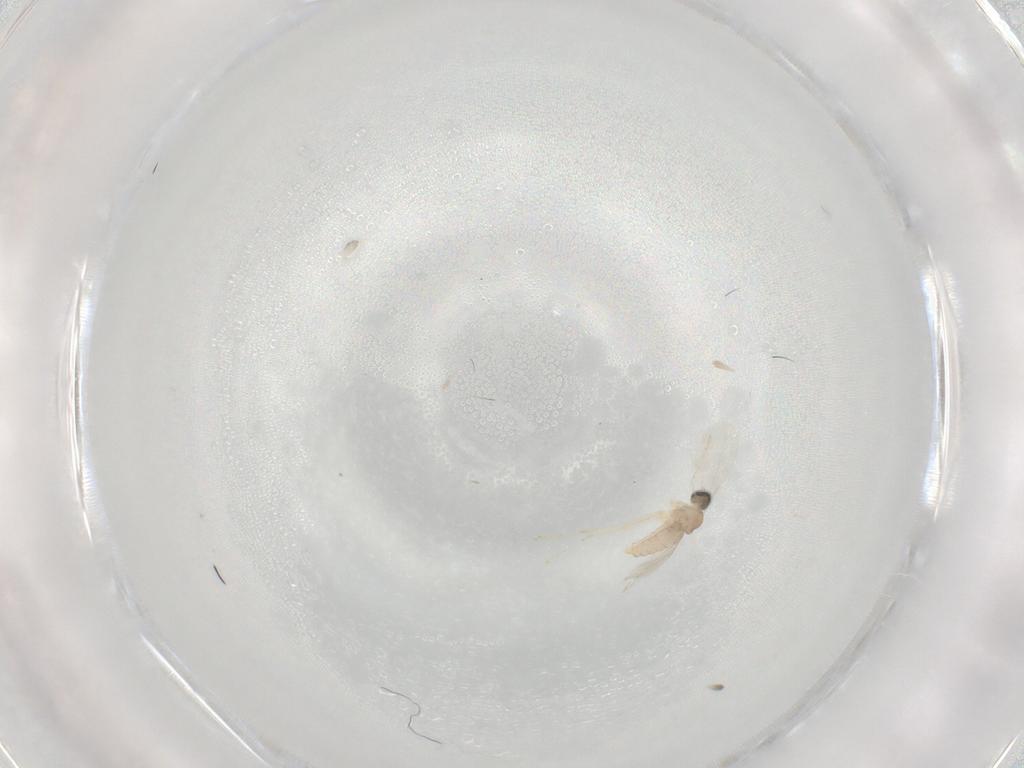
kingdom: Animalia
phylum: Arthropoda
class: Insecta
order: Diptera
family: Cecidomyiidae
